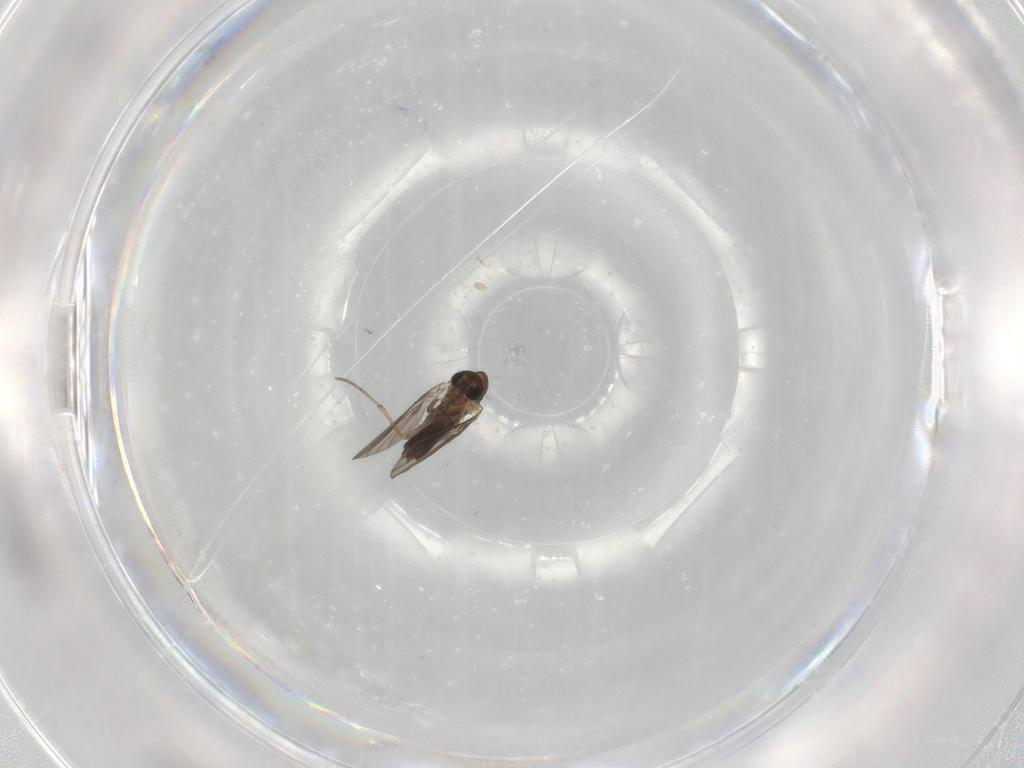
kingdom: Animalia
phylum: Arthropoda
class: Insecta
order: Diptera
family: Cecidomyiidae
